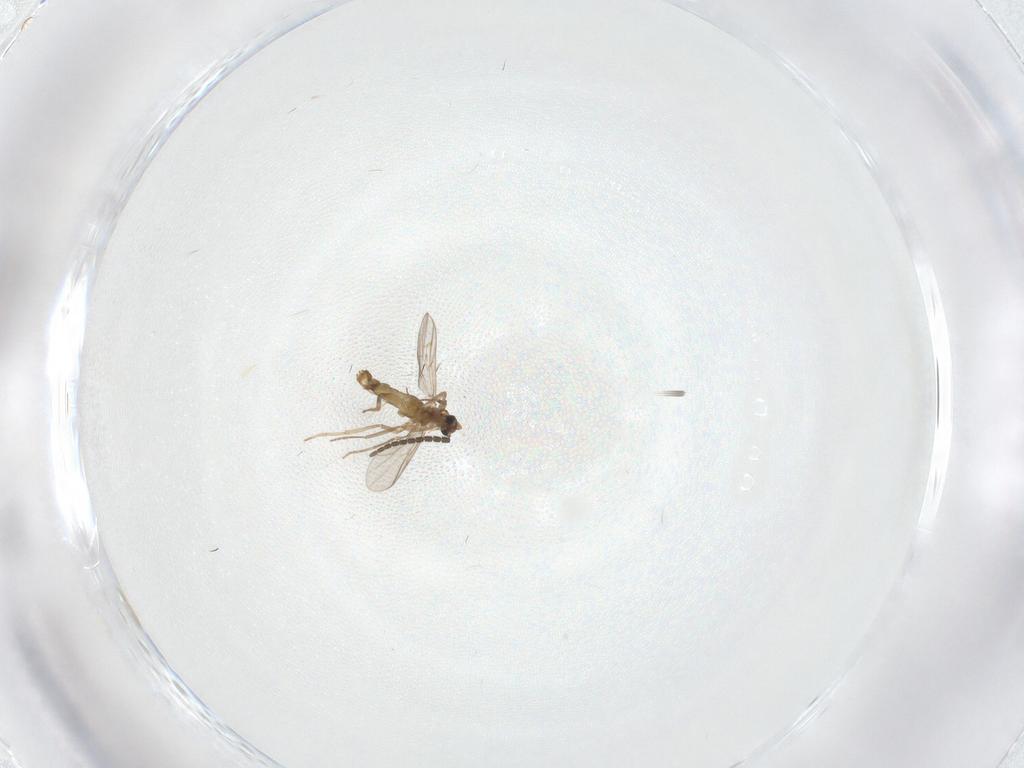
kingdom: Animalia
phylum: Arthropoda
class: Insecta
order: Diptera
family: Chironomidae
